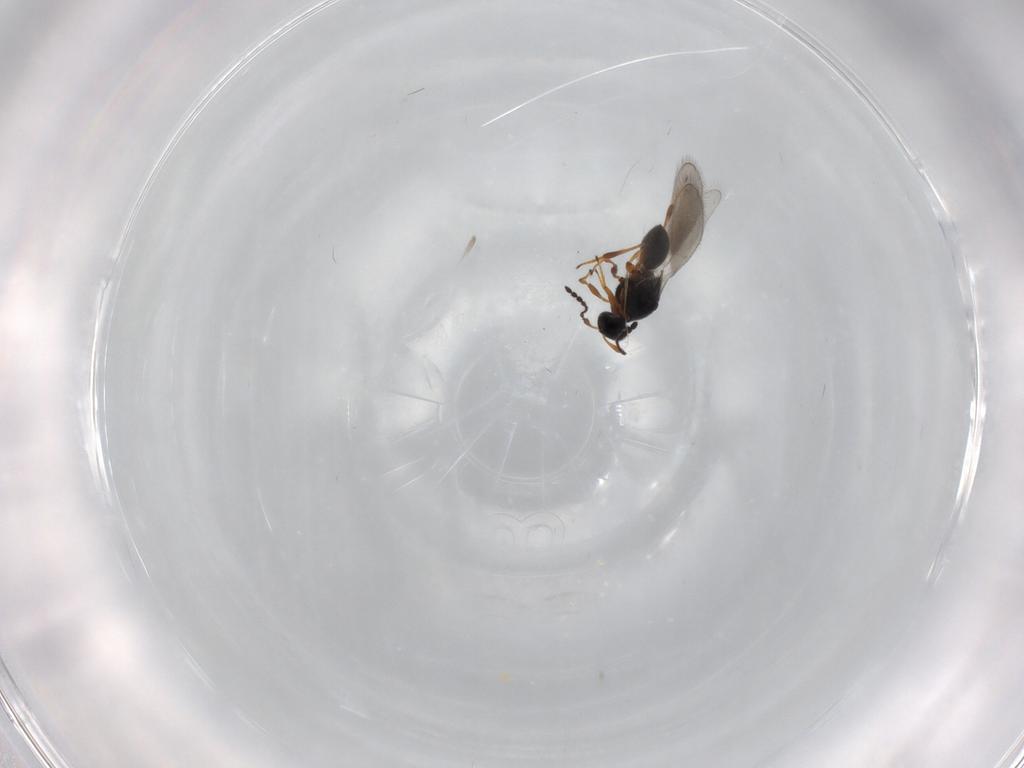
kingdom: Animalia
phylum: Arthropoda
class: Insecta
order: Hymenoptera
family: Platygastridae
